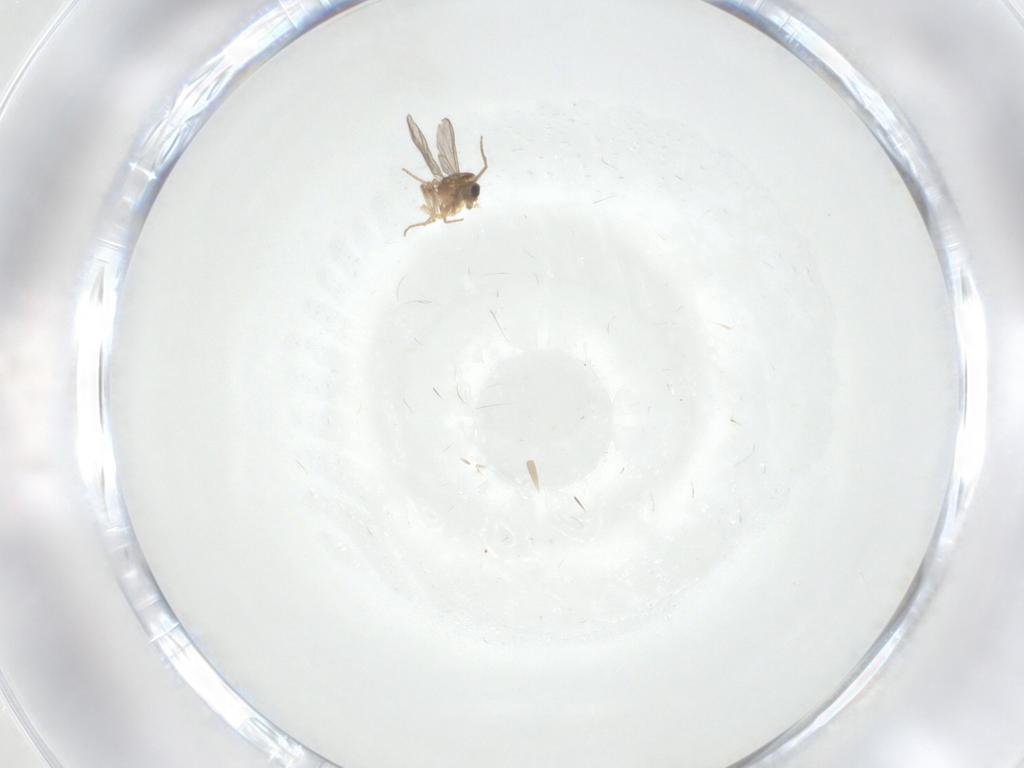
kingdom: Animalia
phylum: Arthropoda
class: Insecta
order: Diptera
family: Chironomidae
